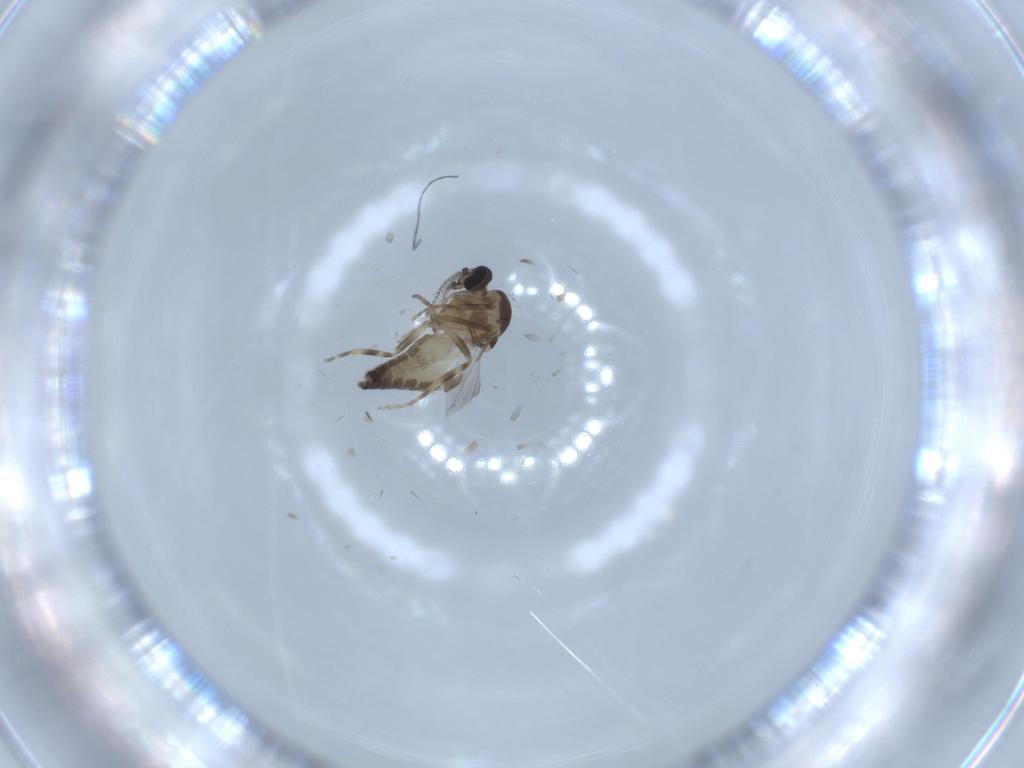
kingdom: Animalia
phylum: Arthropoda
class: Insecta
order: Diptera
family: Ceratopogonidae
